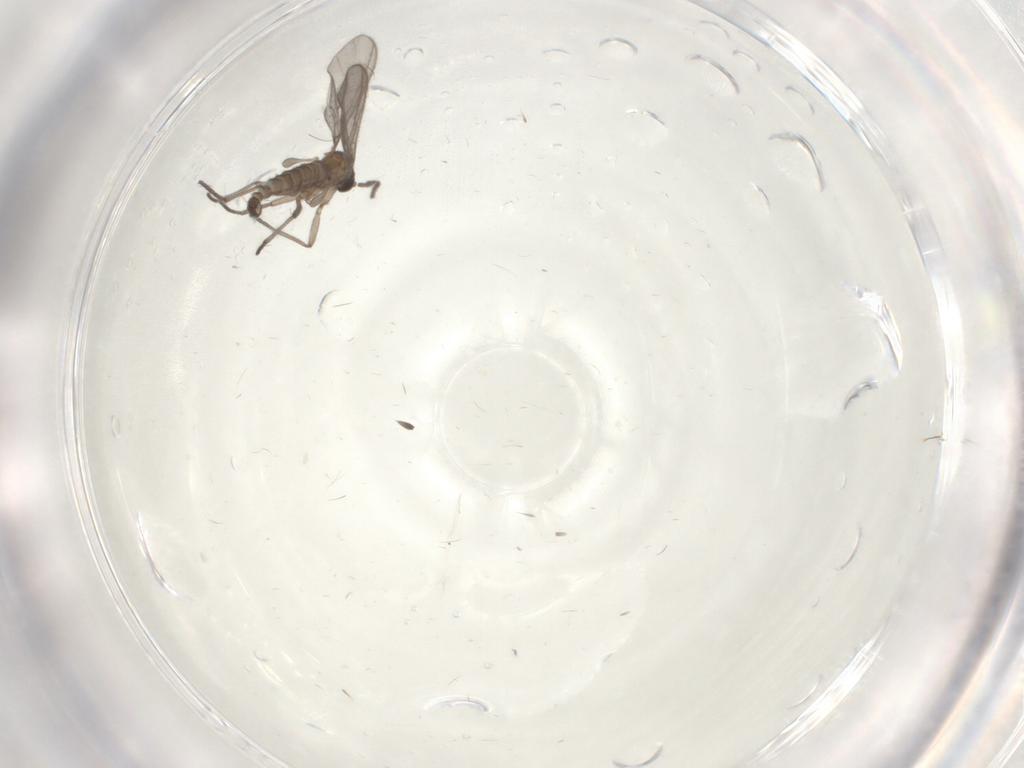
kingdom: Animalia
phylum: Arthropoda
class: Insecta
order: Diptera
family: Sciaridae
